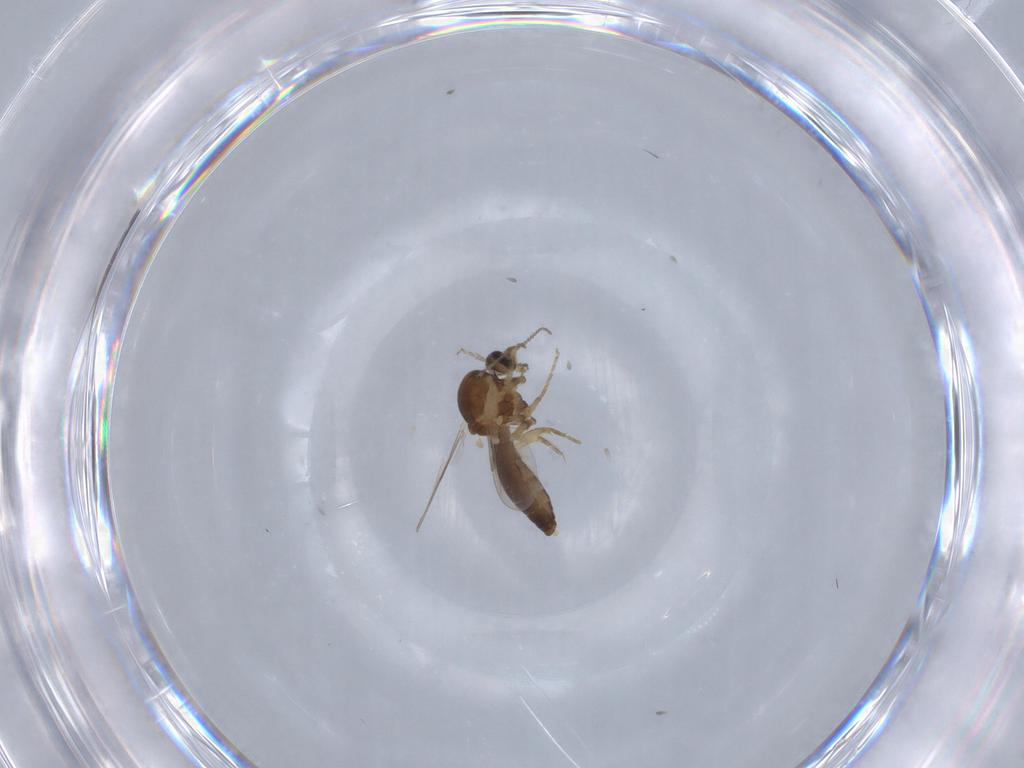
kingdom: Animalia
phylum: Arthropoda
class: Insecta
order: Diptera
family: Ceratopogonidae
